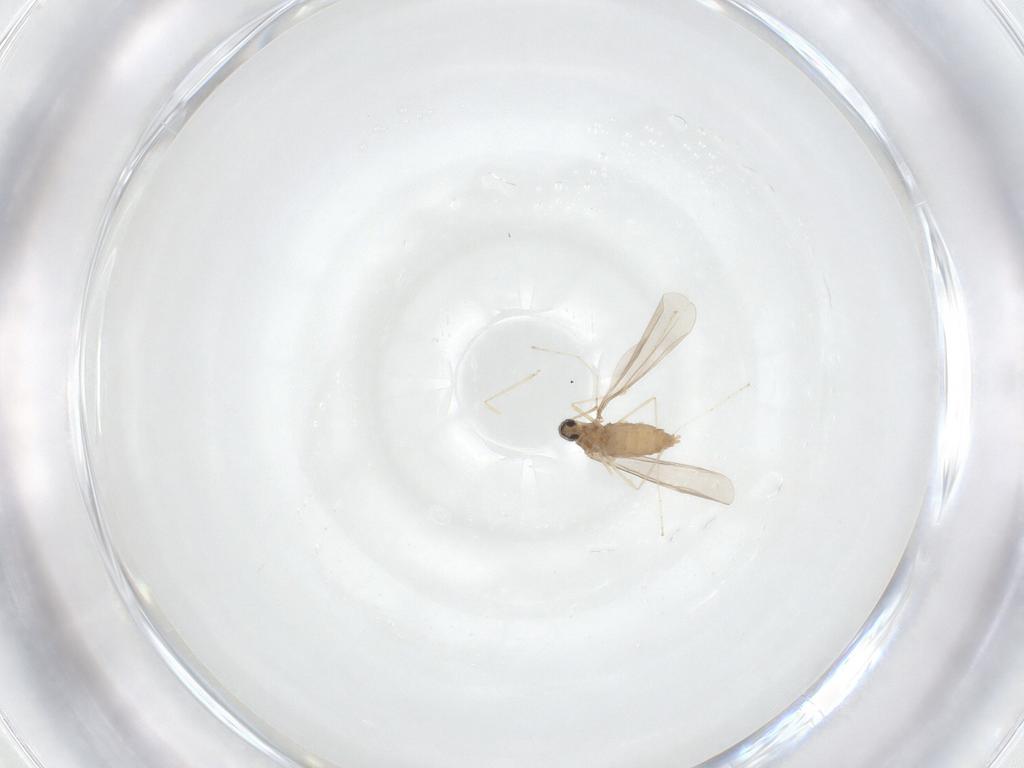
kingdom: Animalia
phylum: Arthropoda
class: Insecta
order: Diptera
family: Cecidomyiidae
